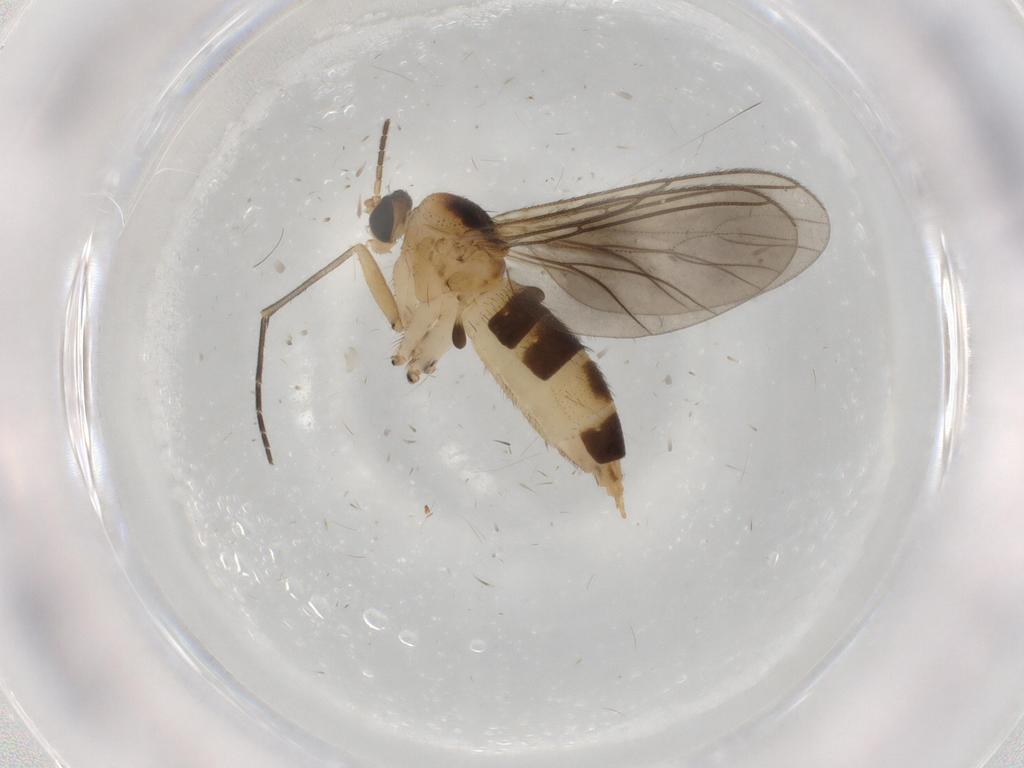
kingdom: Animalia
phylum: Arthropoda
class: Insecta
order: Diptera
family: Sciaridae
